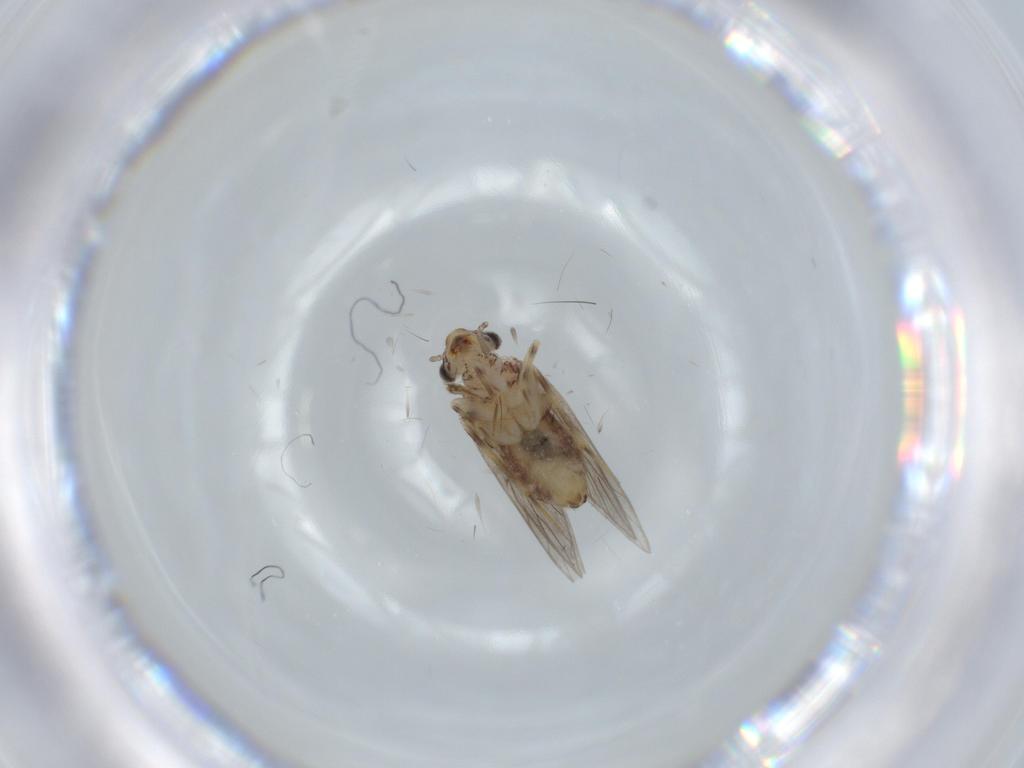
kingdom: Animalia
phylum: Arthropoda
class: Insecta
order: Psocodea
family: Lepidopsocidae
